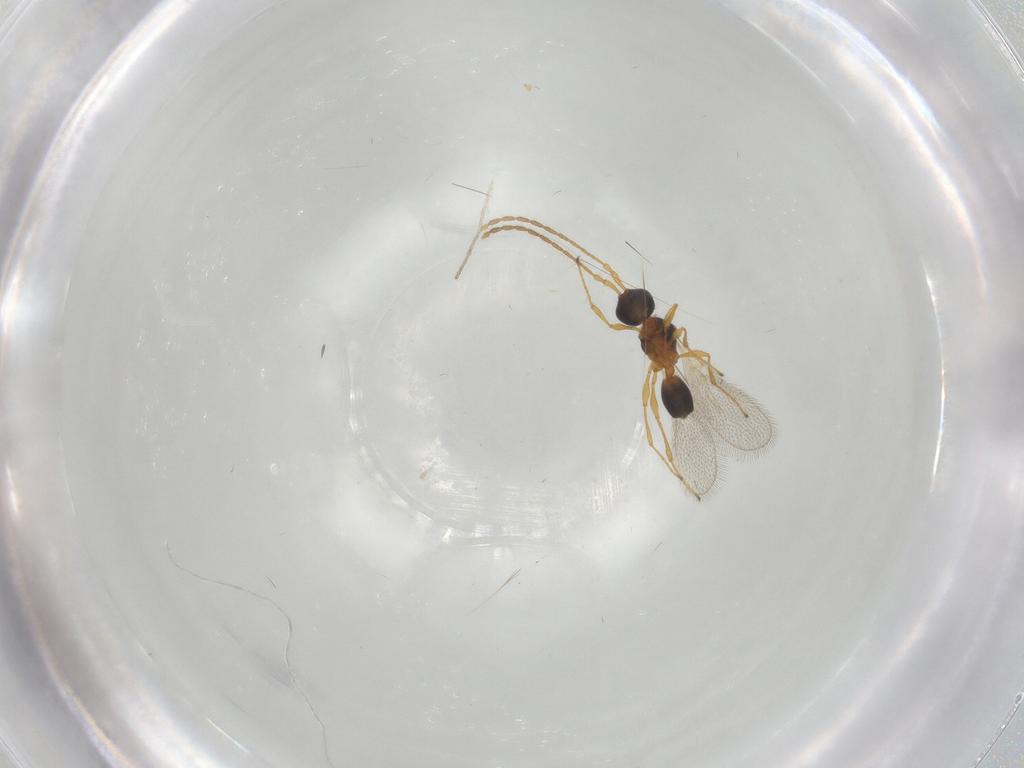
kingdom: Animalia
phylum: Arthropoda
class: Insecta
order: Hymenoptera
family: Diapriidae
